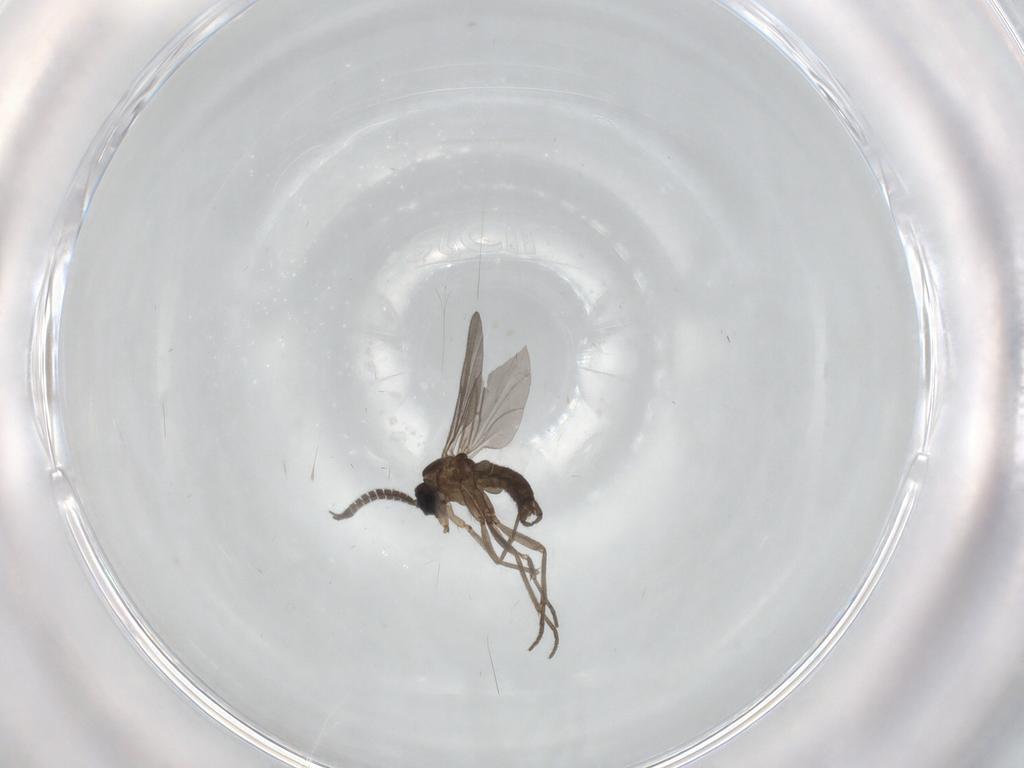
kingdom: Animalia
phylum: Arthropoda
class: Insecta
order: Diptera
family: Sciaridae
